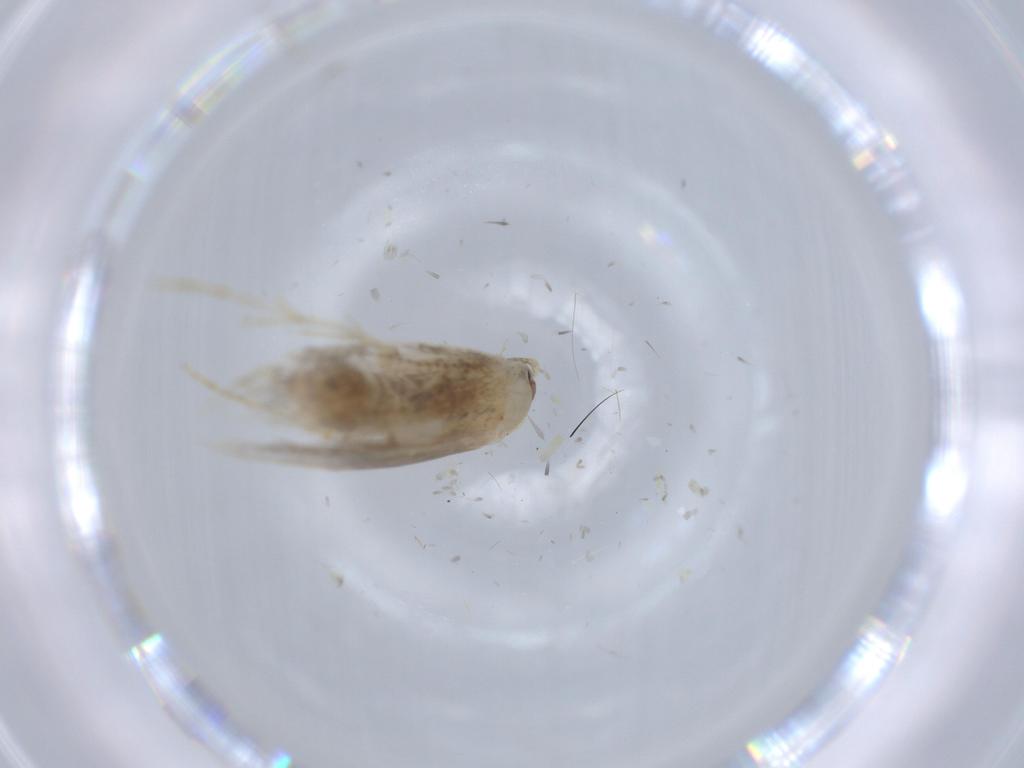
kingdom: Animalia
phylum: Arthropoda
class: Insecta
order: Lepidoptera
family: Tineidae
